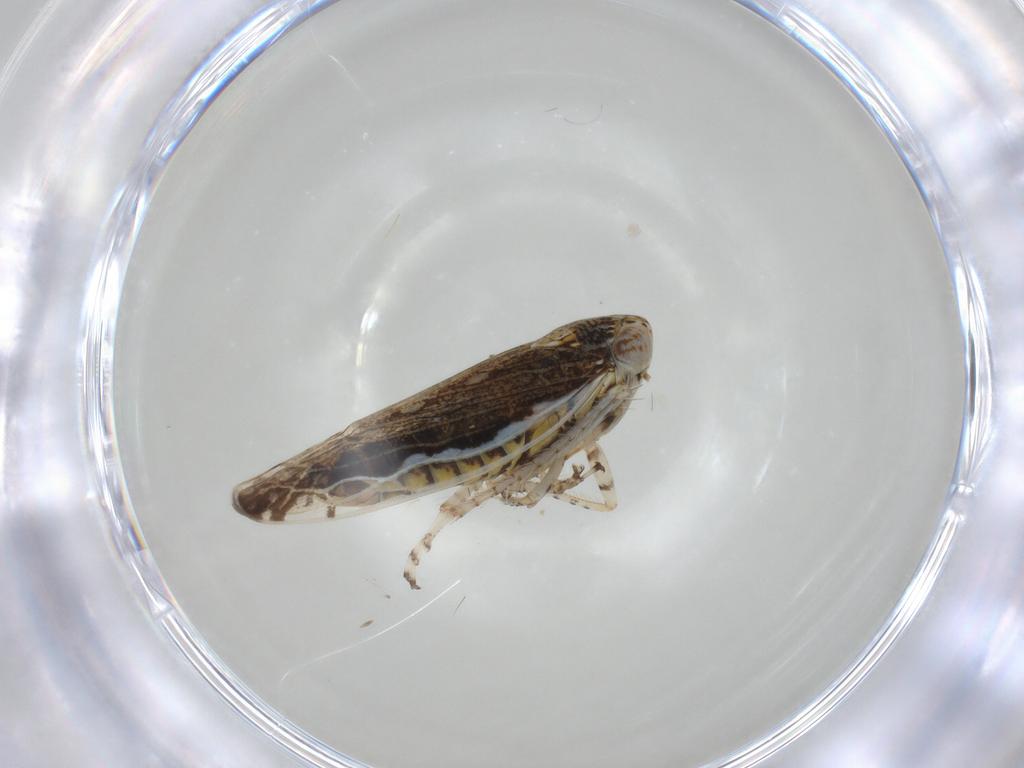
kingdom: Animalia
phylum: Arthropoda
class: Insecta
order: Hemiptera
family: Cicadellidae
